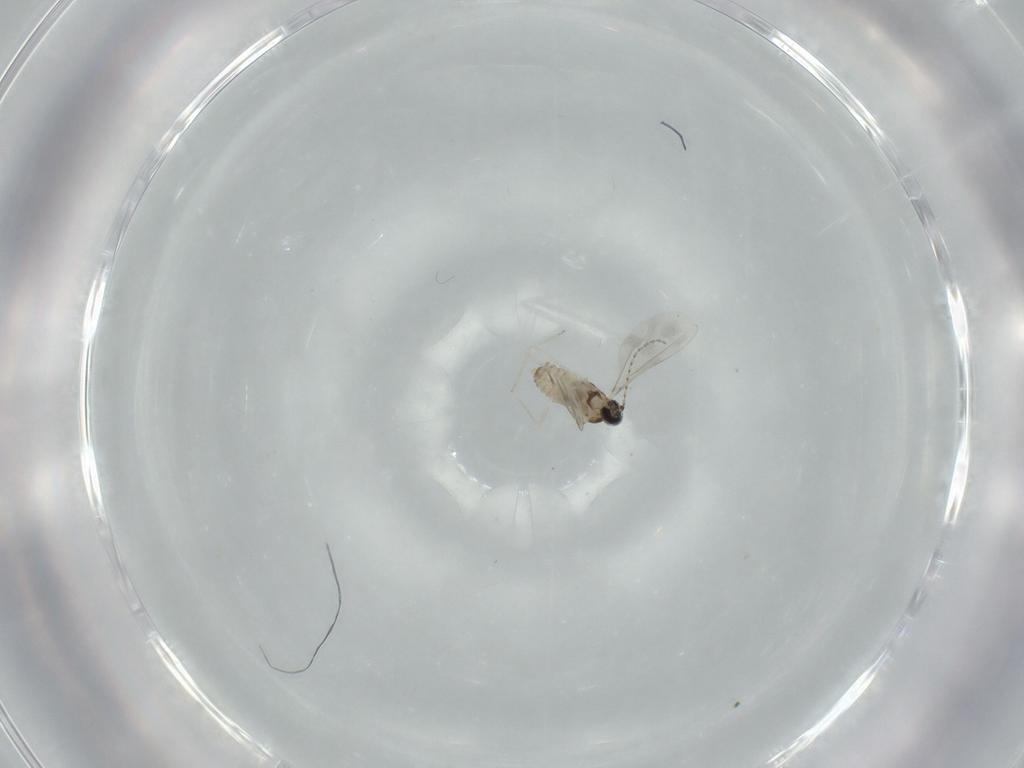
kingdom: Animalia
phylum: Arthropoda
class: Insecta
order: Diptera
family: Cecidomyiidae
